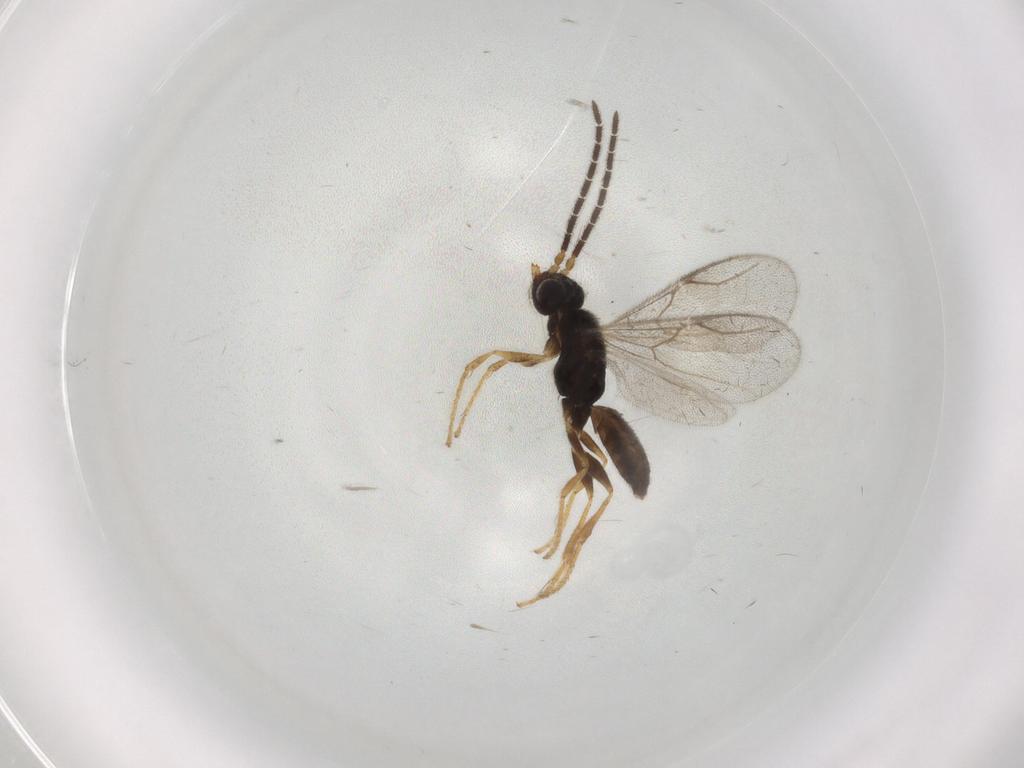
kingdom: Animalia
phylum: Arthropoda
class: Insecta
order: Hymenoptera
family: Dryinidae
